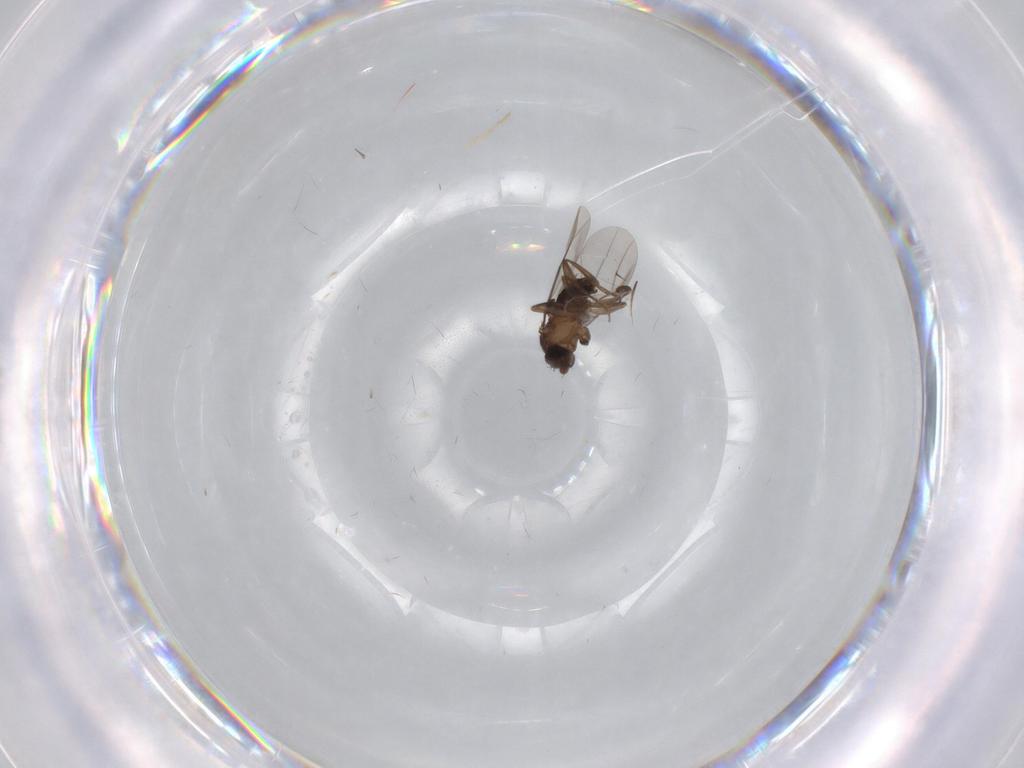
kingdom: Animalia
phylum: Arthropoda
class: Insecta
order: Diptera
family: Phoridae
